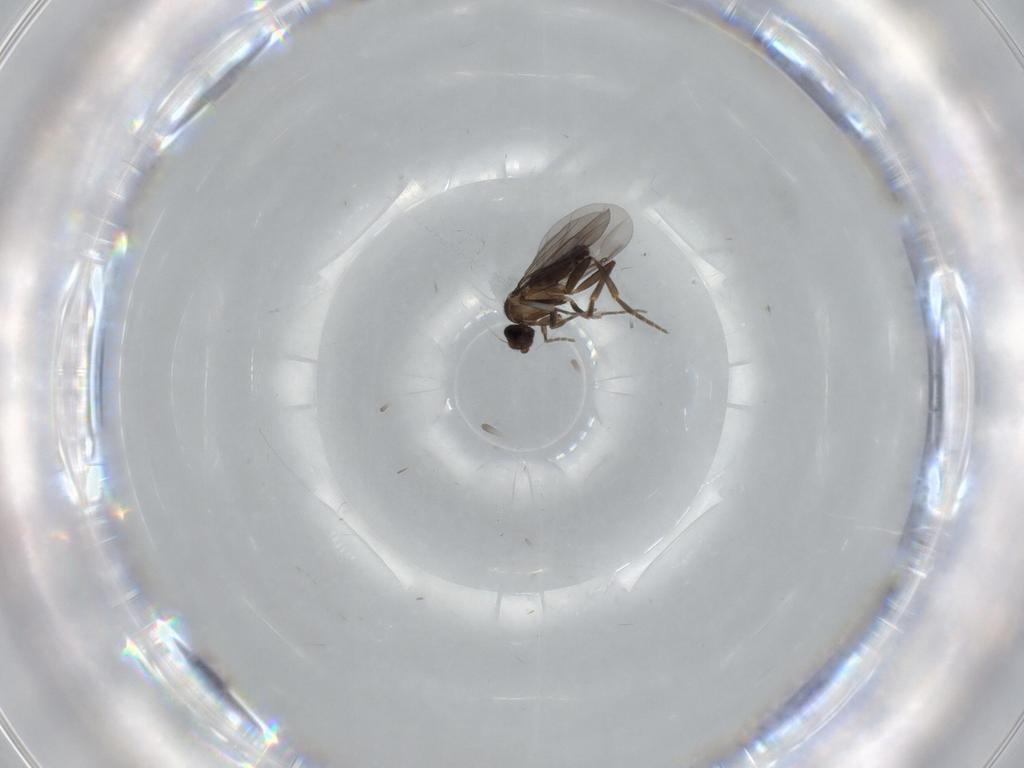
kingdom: Animalia
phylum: Arthropoda
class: Insecta
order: Diptera
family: Phoridae
